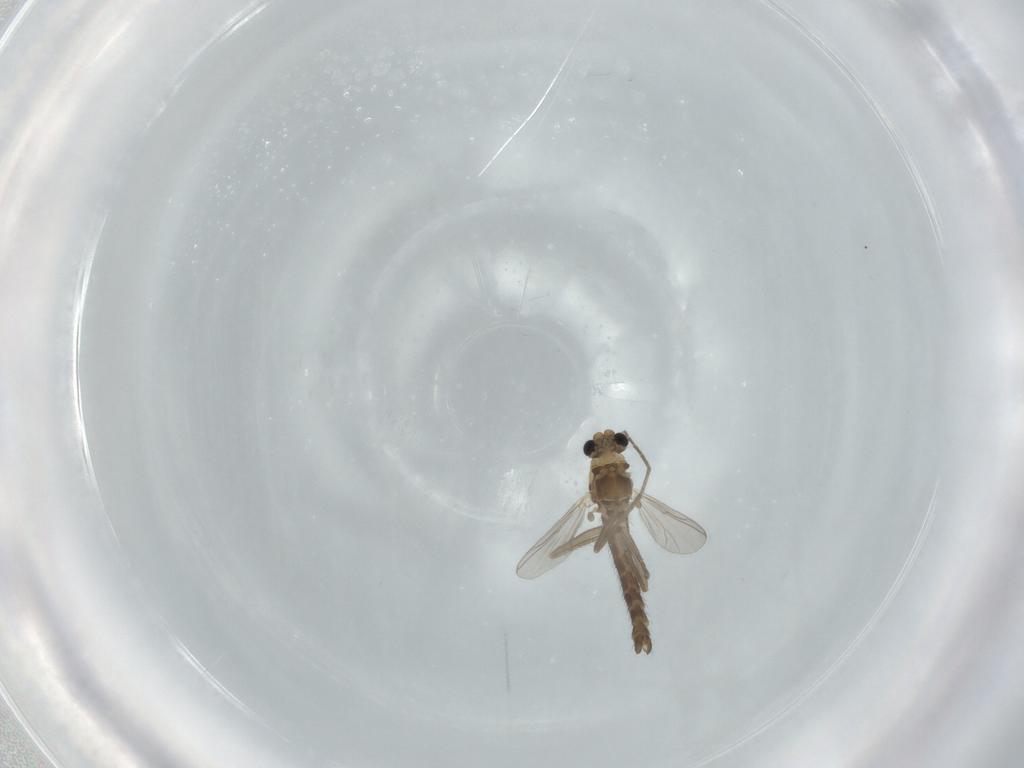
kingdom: Animalia
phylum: Arthropoda
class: Insecta
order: Diptera
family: Chironomidae
